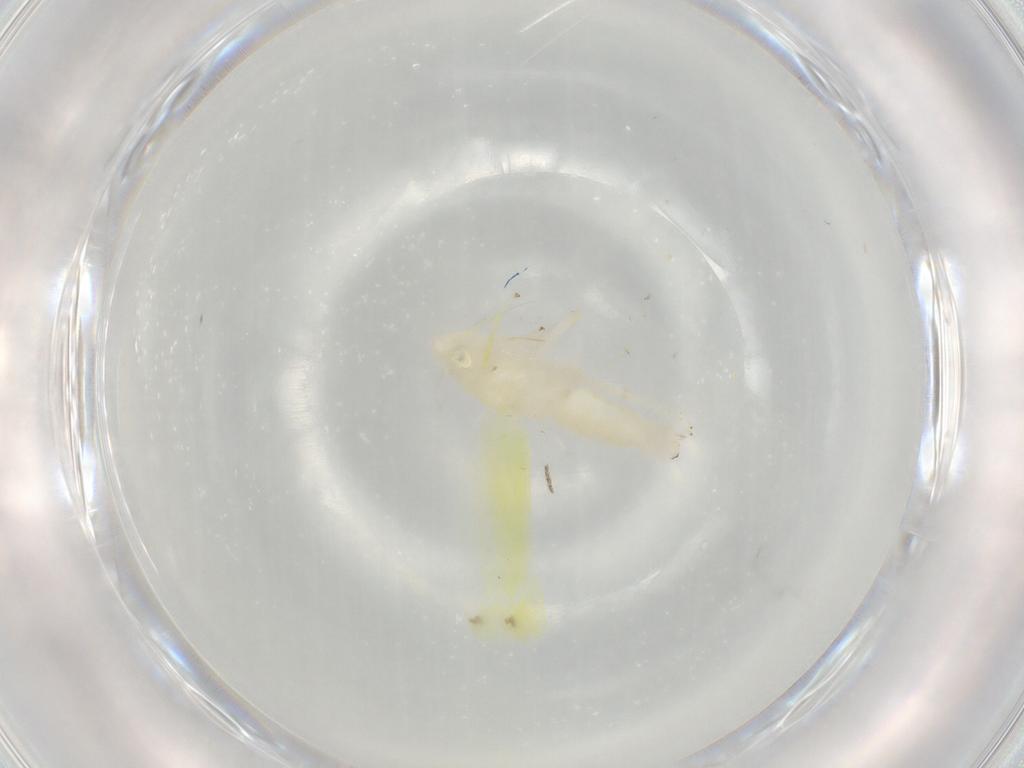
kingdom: Animalia
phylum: Arthropoda
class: Insecta
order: Hemiptera
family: Cicadellidae
